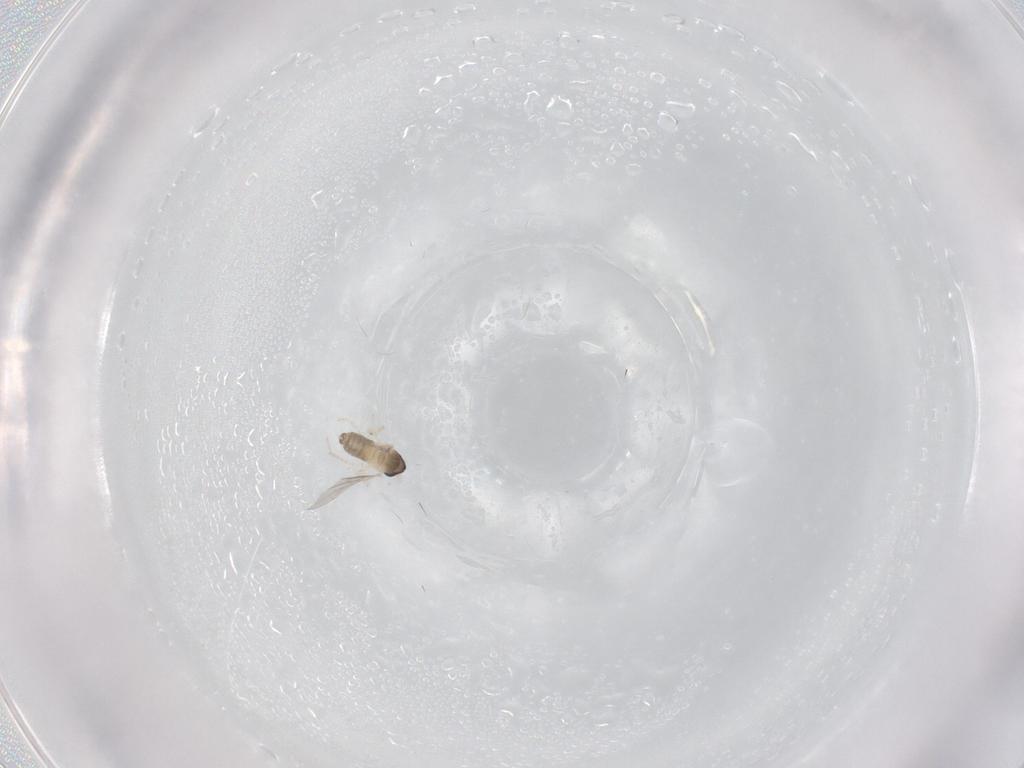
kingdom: Animalia
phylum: Arthropoda
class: Insecta
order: Diptera
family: Cecidomyiidae
